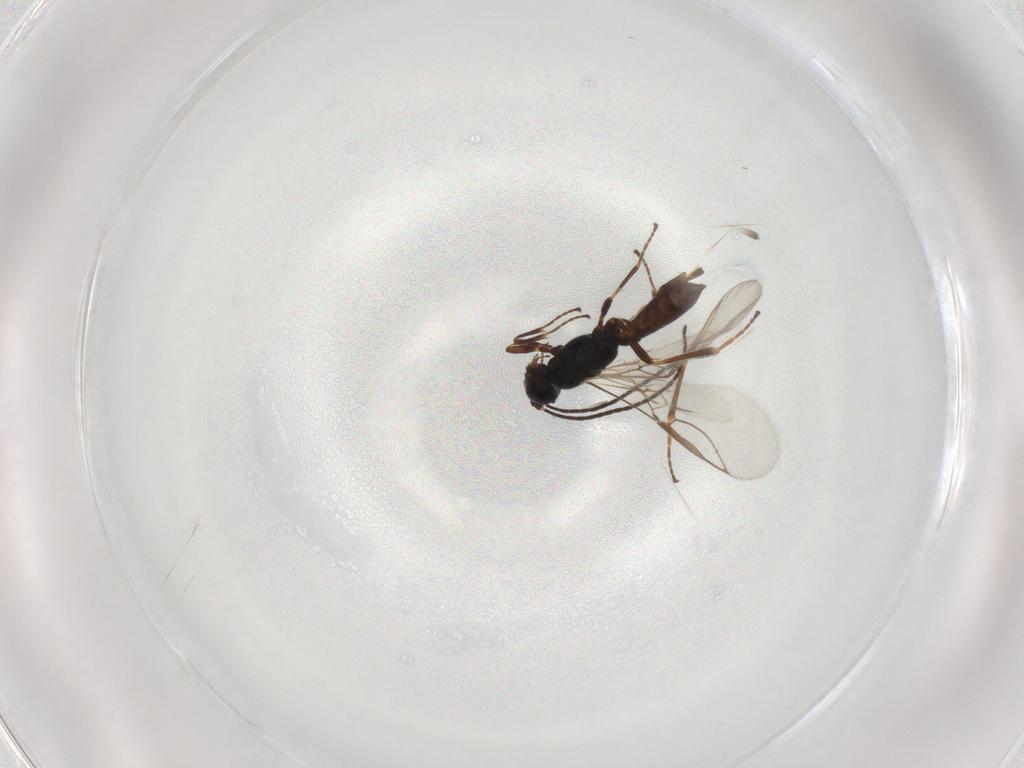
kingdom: Animalia
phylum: Arthropoda
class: Insecta
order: Hymenoptera
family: Braconidae
